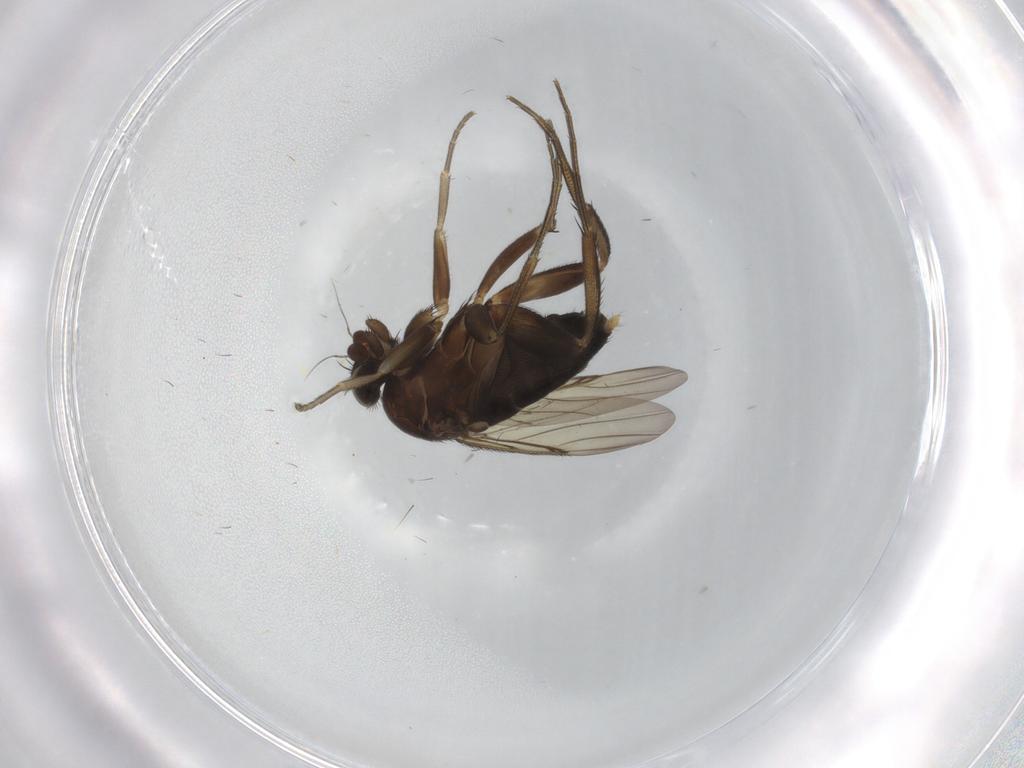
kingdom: Animalia
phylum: Arthropoda
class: Insecta
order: Diptera
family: Phoridae
